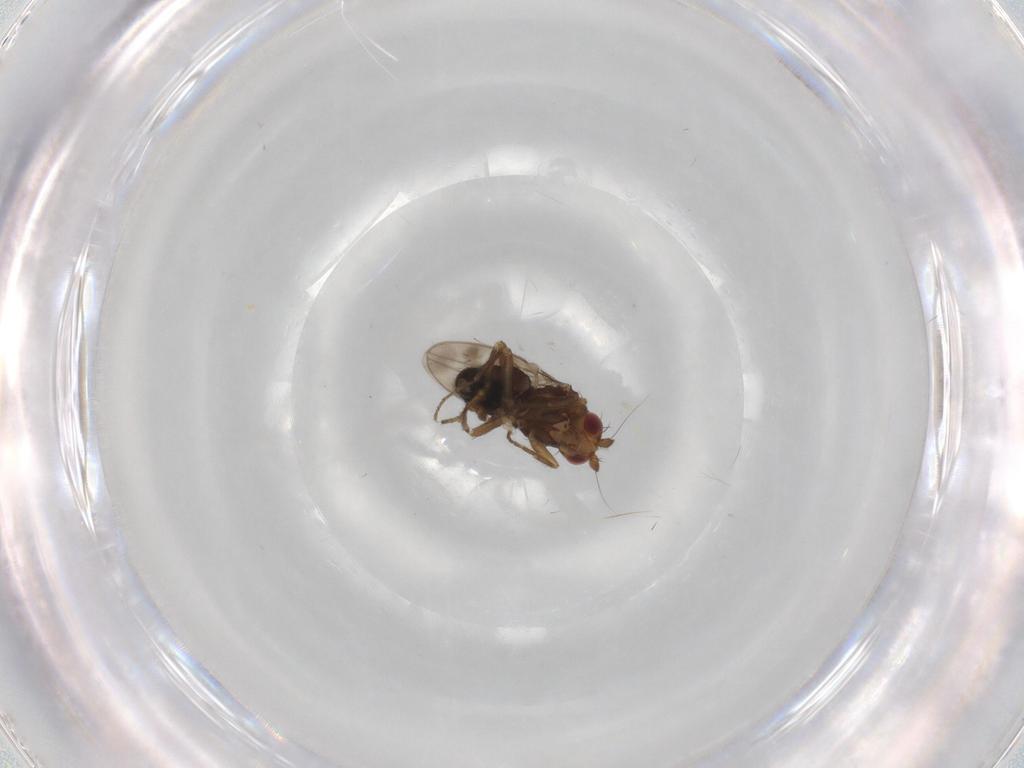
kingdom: Animalia
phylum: Arthropoda
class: Insecta
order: Diptera
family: Sphaeroceridae
